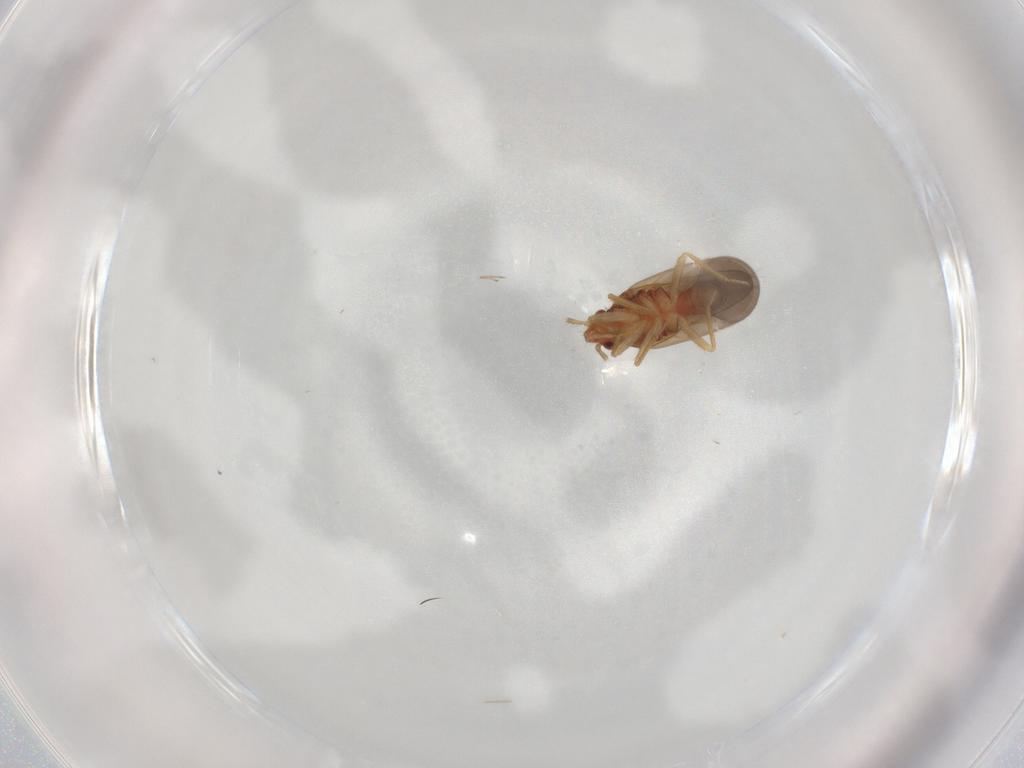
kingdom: Animalia
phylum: Arthropoda
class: Insecta
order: Hemiptera
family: Ceratocombidae
